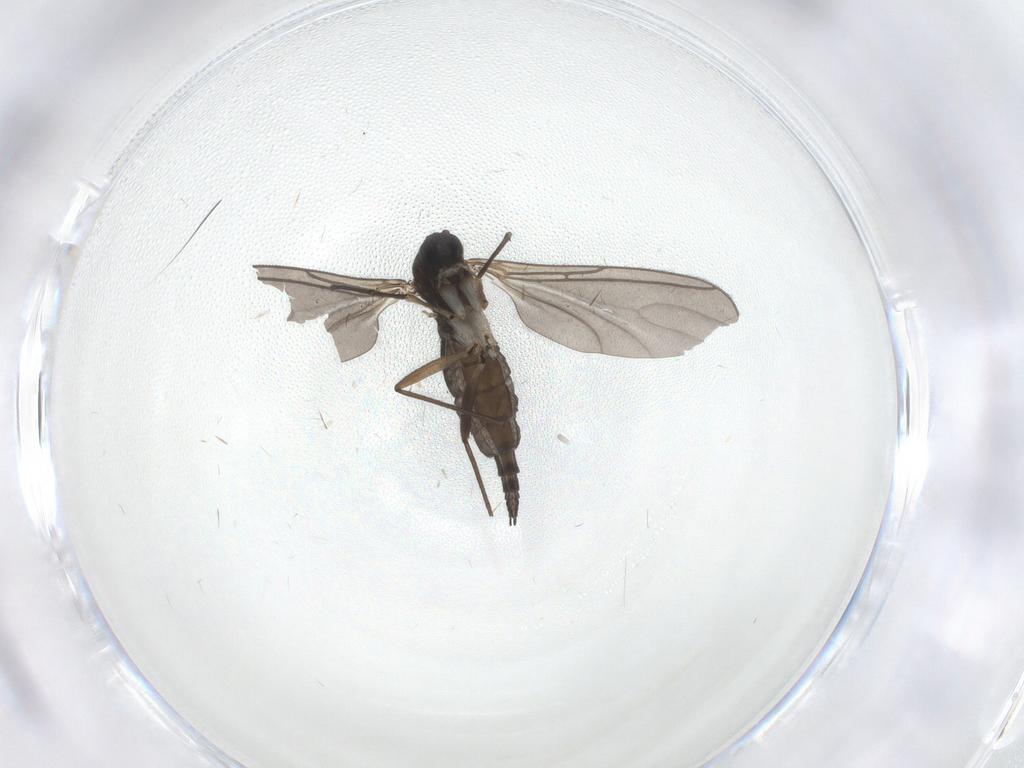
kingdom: Animalia
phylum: Arthropoda
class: Insecta
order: Diptera
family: Sciaridae
